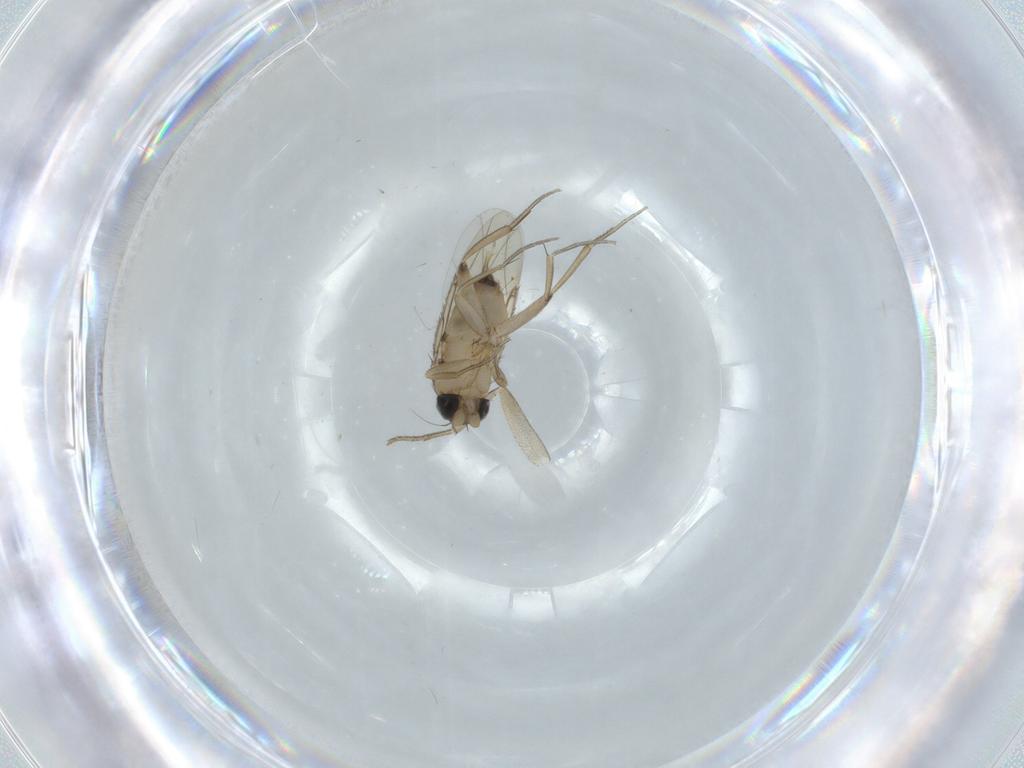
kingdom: Animalia
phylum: Arthropoda
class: Insecta
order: Diptera
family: Phoridae
